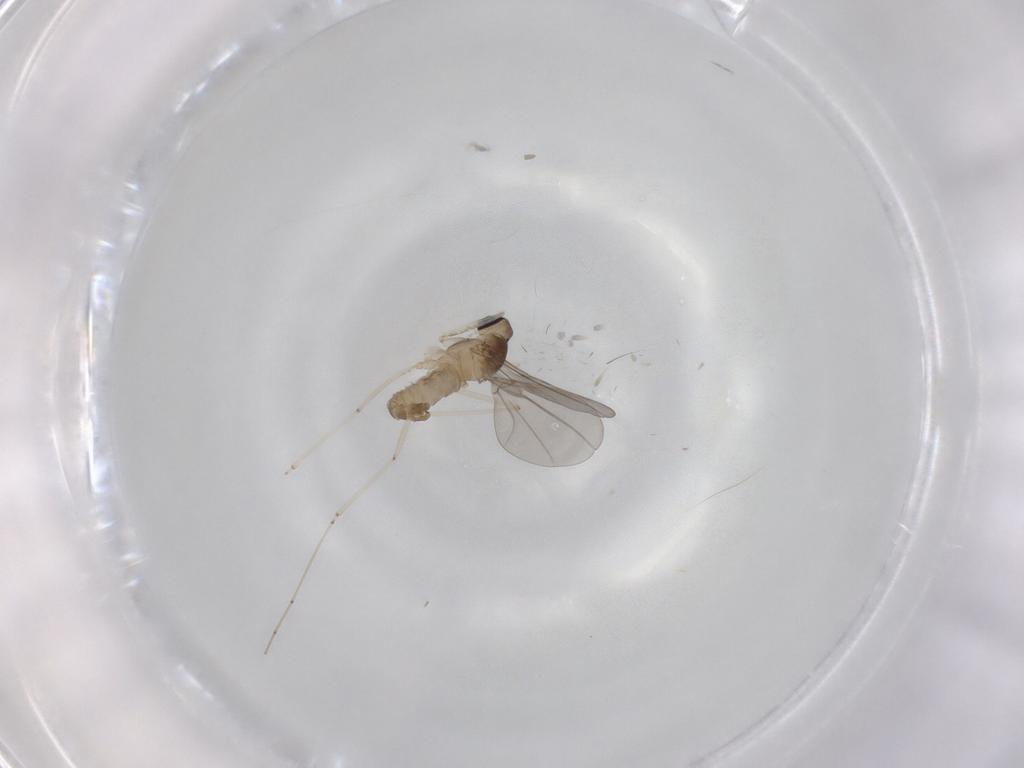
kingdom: Animalia
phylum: Arthropoda
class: Insecta
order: Diptera
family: Cecidomyiidae
